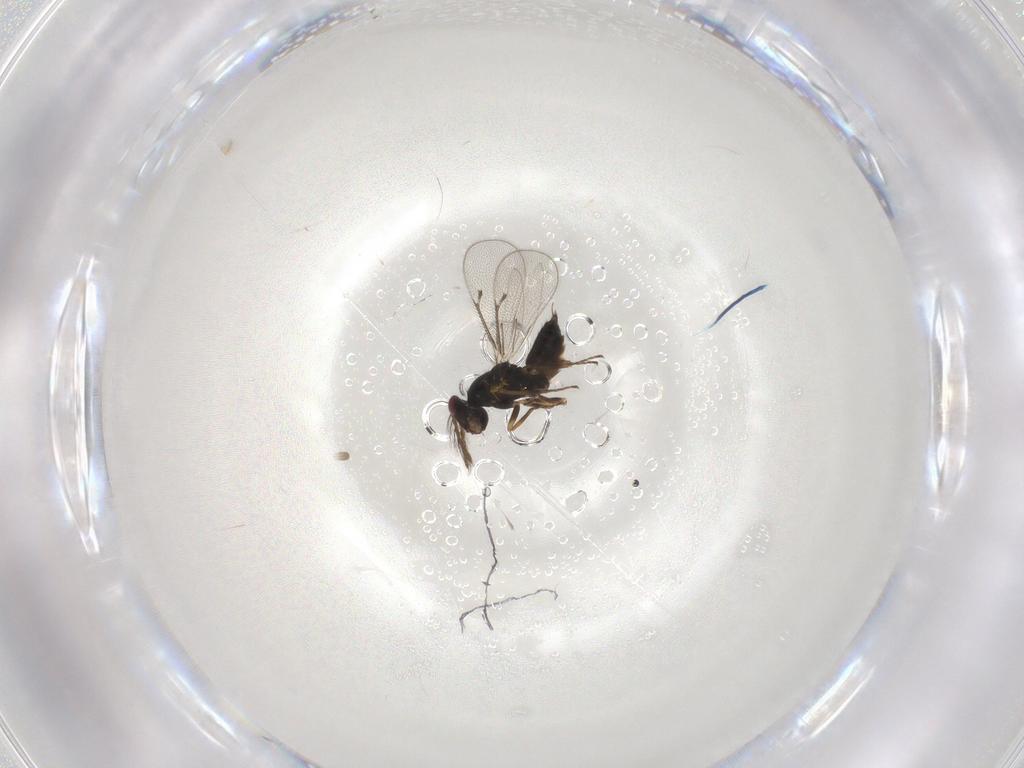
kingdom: Animalia
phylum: Arthropoda
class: Insecta
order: Hymenoptera
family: Eulophidae
